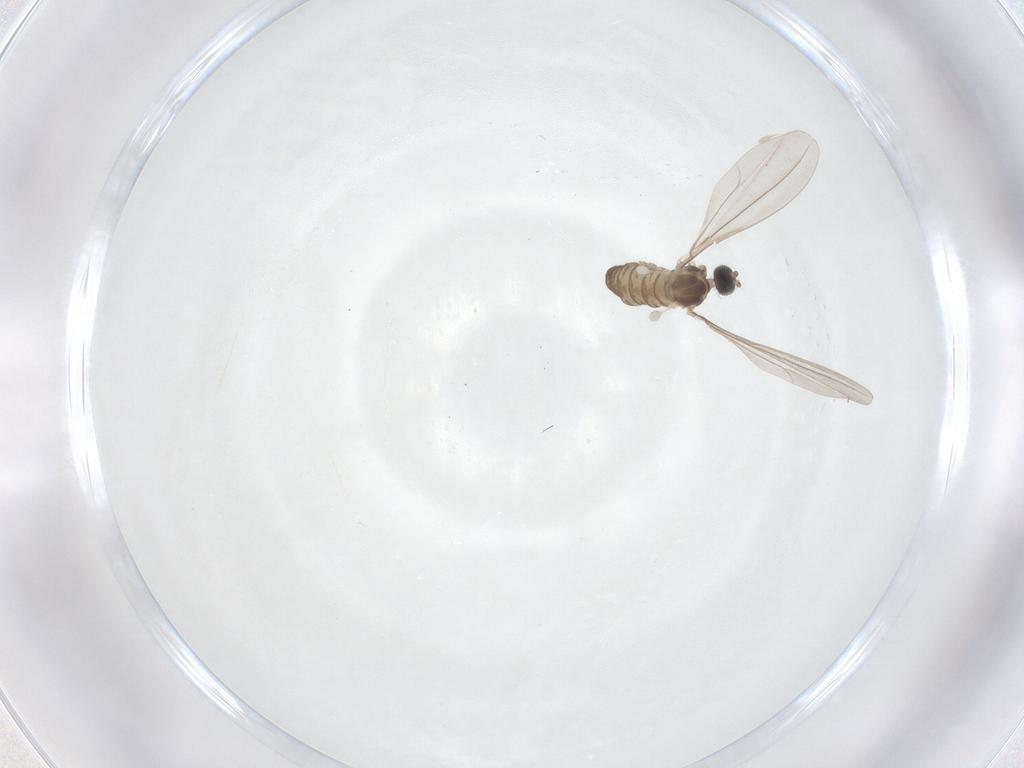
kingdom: Animalia
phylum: Arthropoda
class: Insecta
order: Diptera
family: Cecidomyiidae
